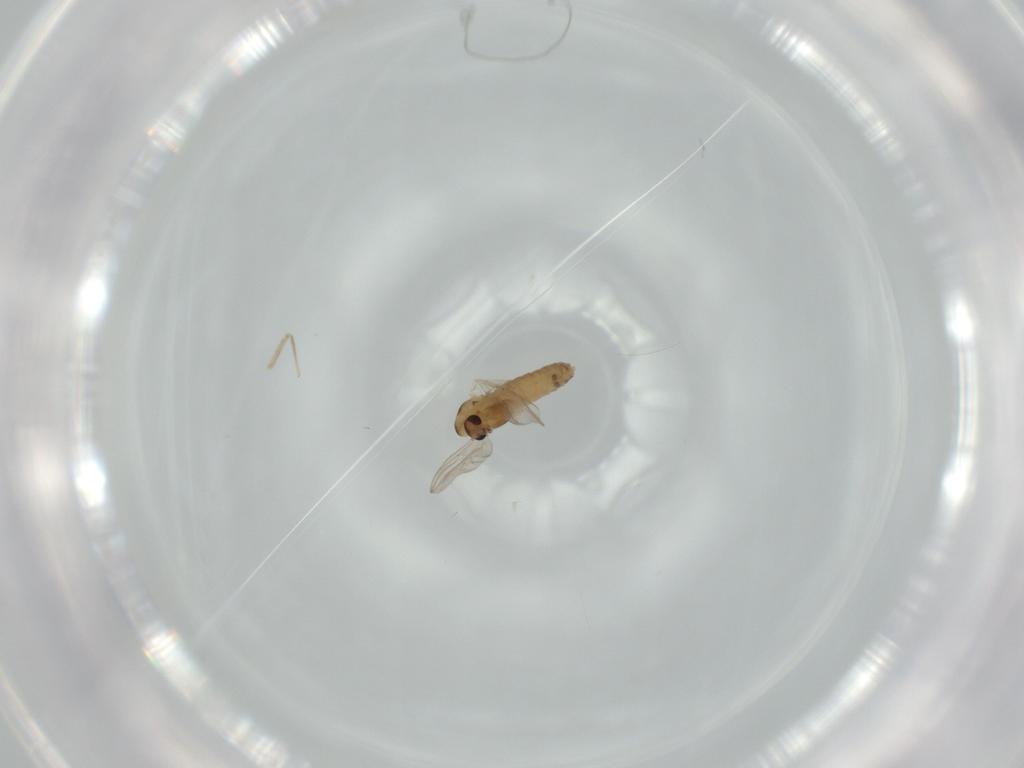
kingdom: Animalia
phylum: Arthropoda
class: Insecta
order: Diptera
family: Chironomidae
